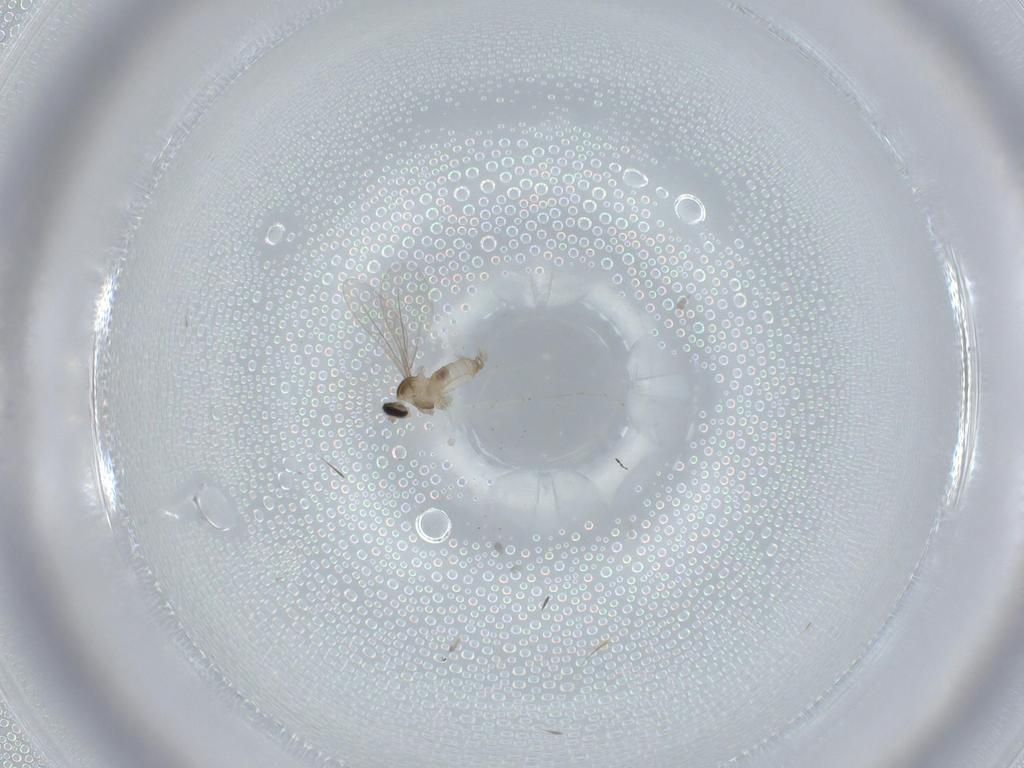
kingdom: Animalia
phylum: Arthropoda
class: Insecta
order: Diptera
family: Cecidomyiidae
